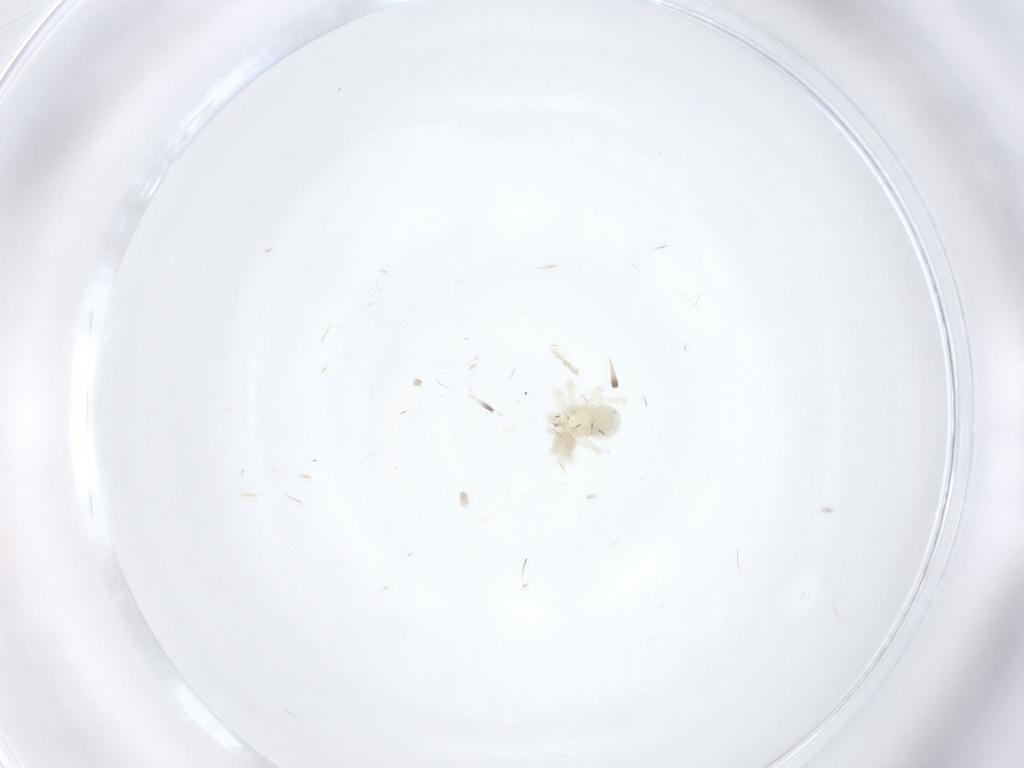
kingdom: Animalia
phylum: Arthropoda
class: Arachnida
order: Trombidiformes
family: Anystidae
